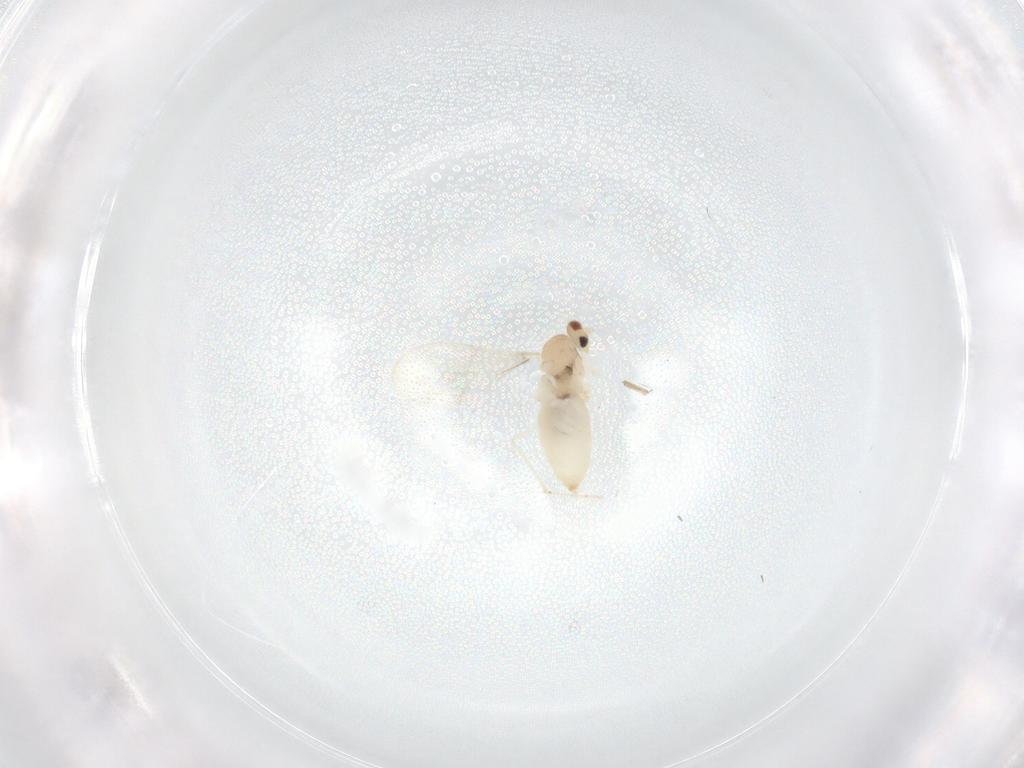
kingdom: Animalia
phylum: Arthropoda
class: Insecta
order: Diptera
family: Cecidomyiidae
